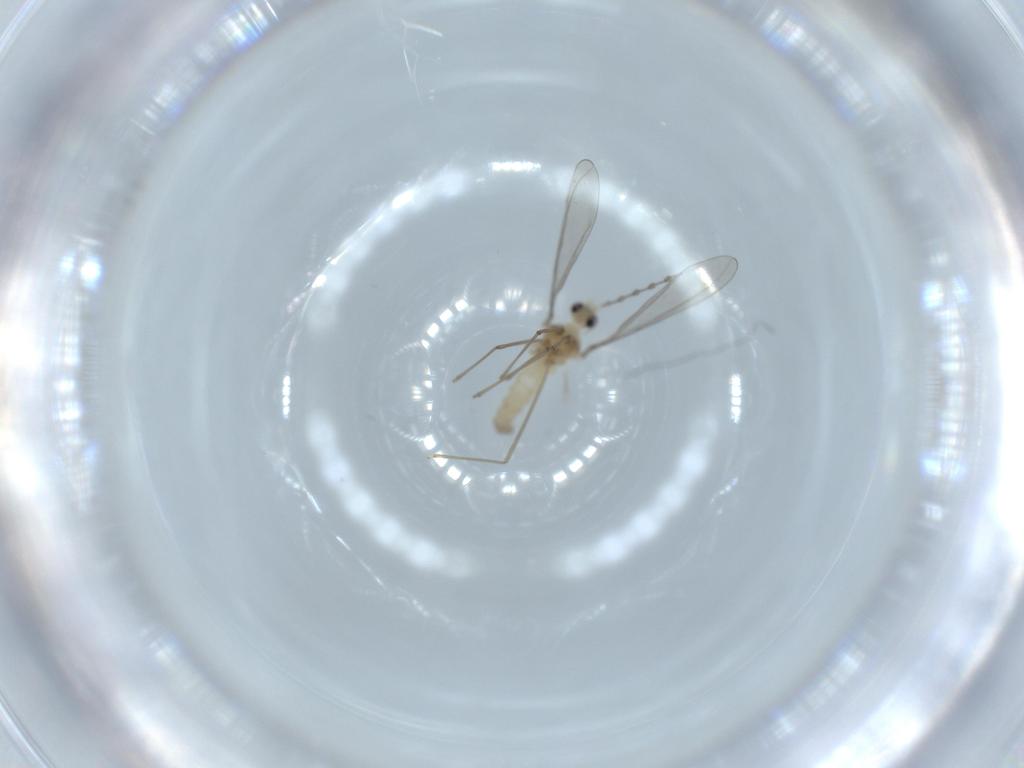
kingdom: Animalia
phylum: Arthropoda
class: Insecta
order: Diptera
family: Cecidomyiidae
